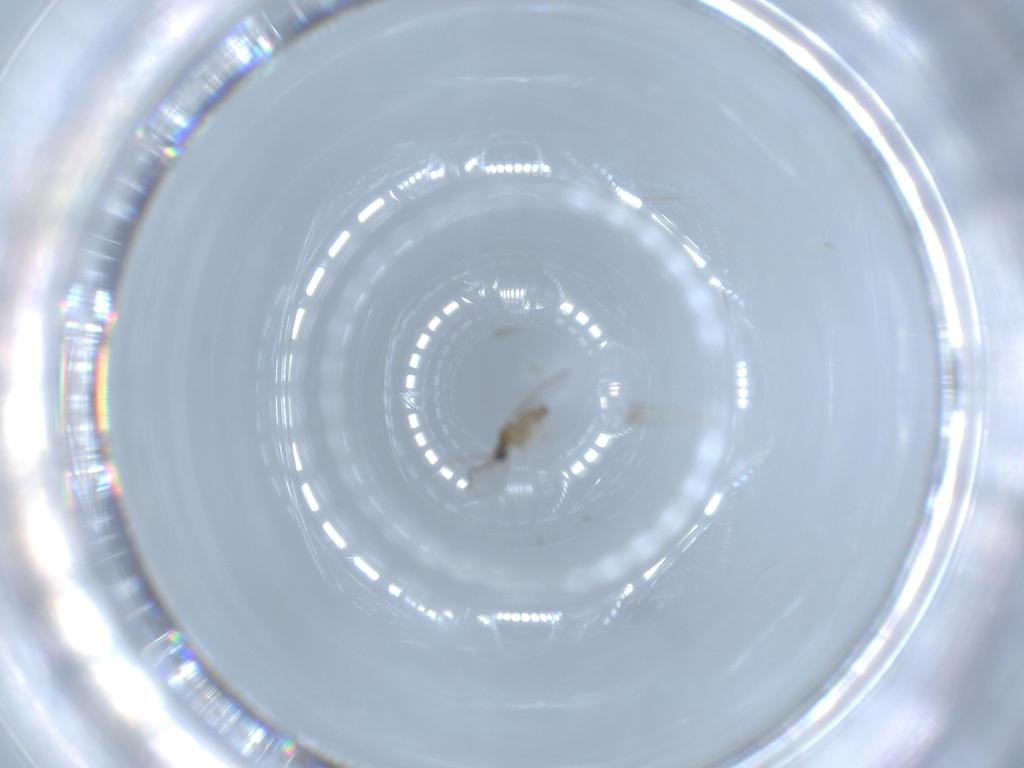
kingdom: Animalia
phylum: Arthropoda
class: Insecta
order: Diptera
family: Cecidomyiidae
